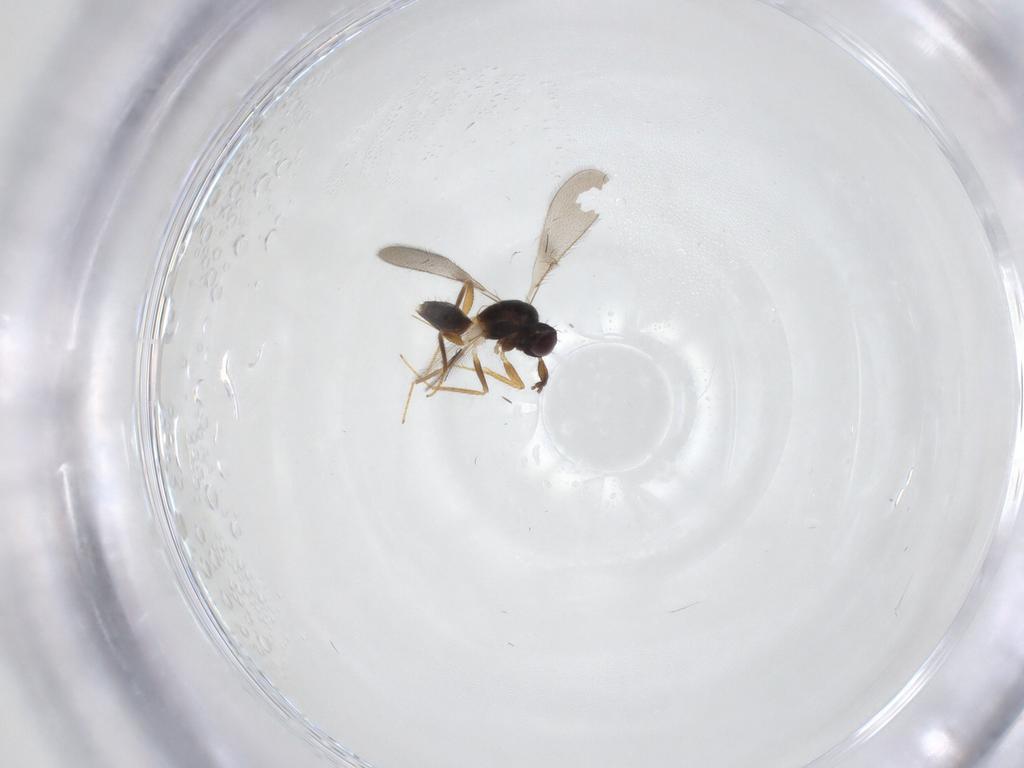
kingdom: Animalia
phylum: Arthropoda
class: Insecta
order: Hymenoptera
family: Mymaridae
